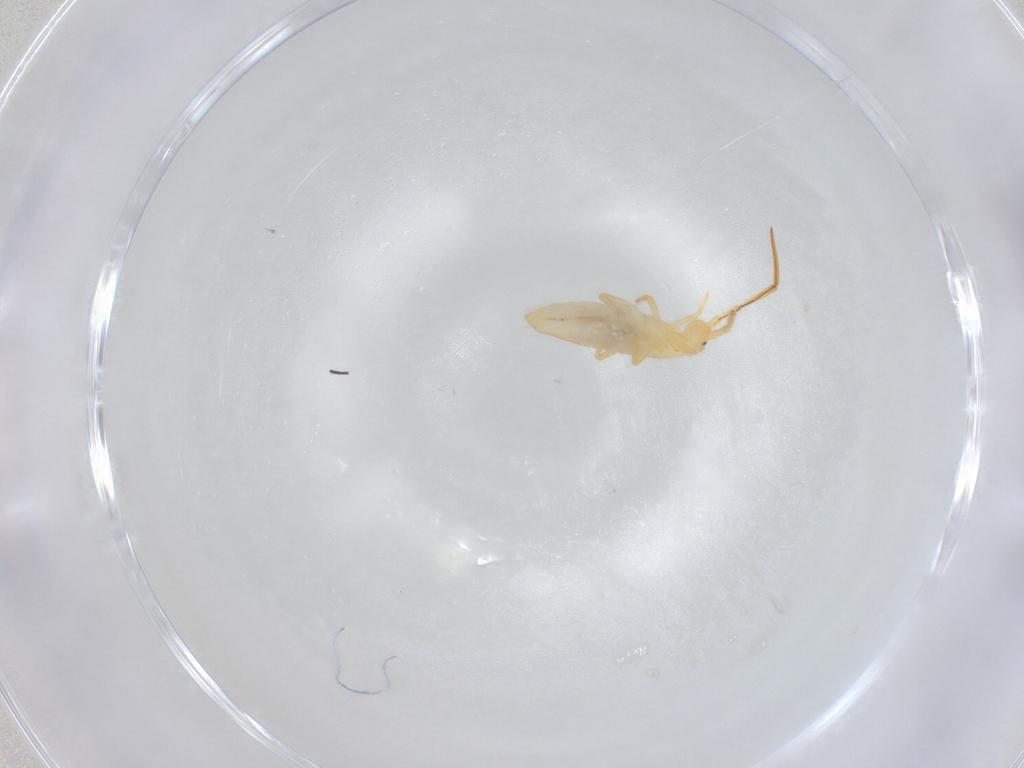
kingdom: Animalia
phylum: Arthropoda
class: Collembola
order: Entomobryomorpha
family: Entomobryidae
